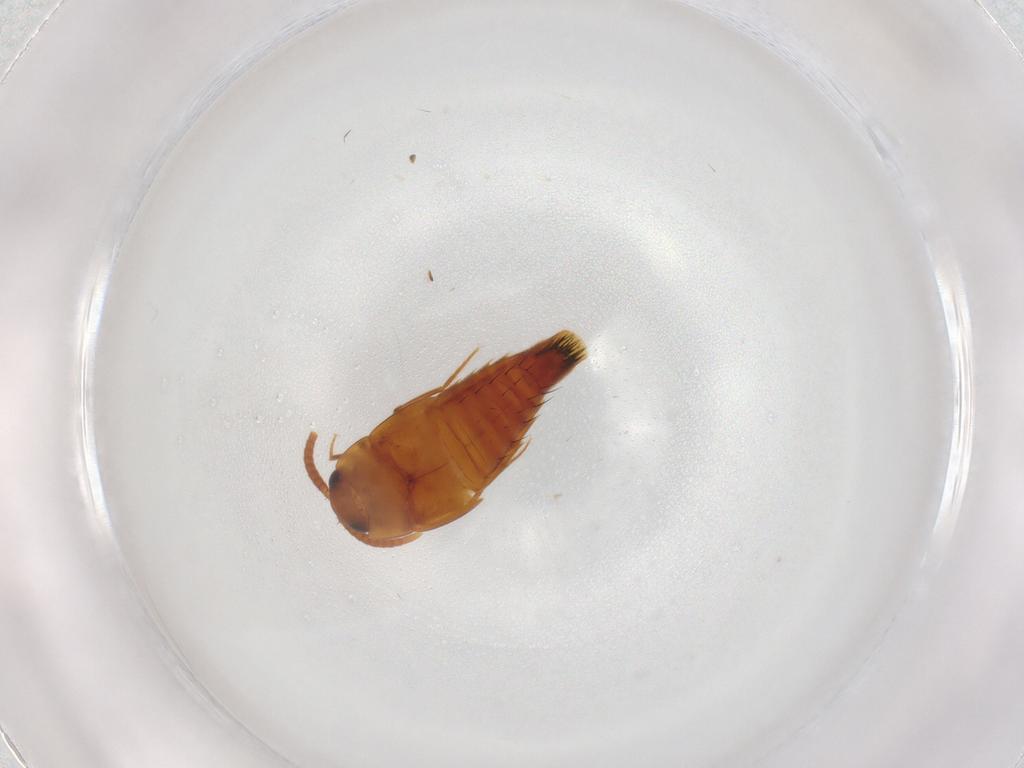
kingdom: Animalia
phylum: Arthropoda
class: Insecta
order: Coleoptera
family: Staphylinidae
